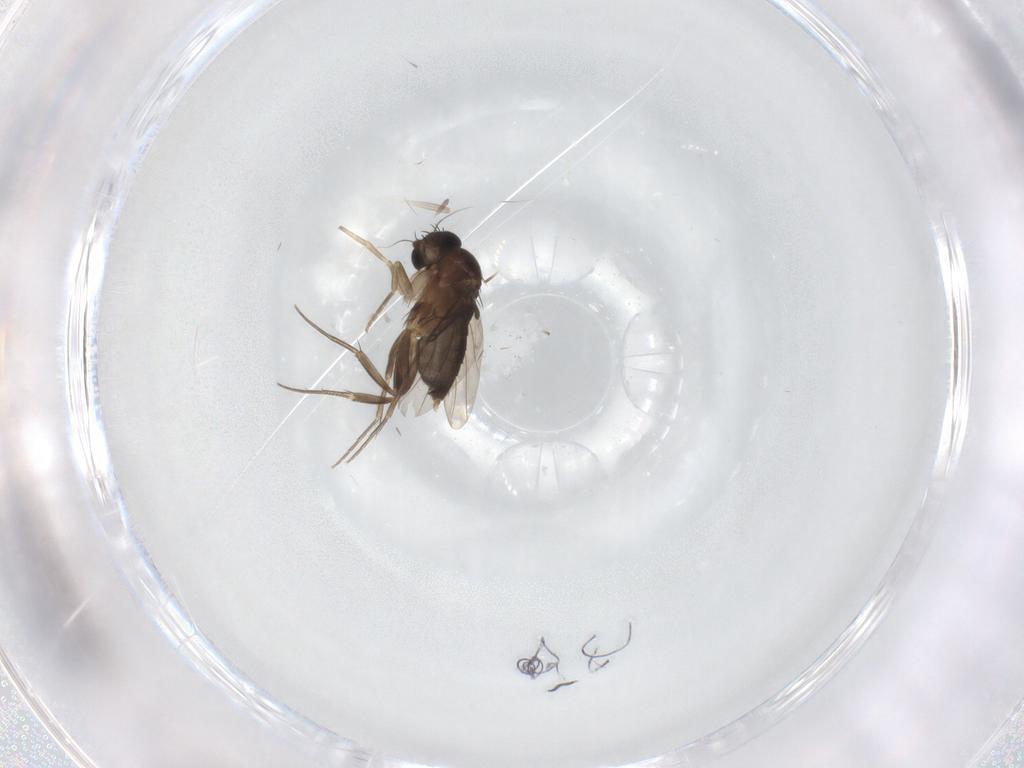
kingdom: Animalia
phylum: Arthropoda
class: Insecta
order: Diptera
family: Phoridae
